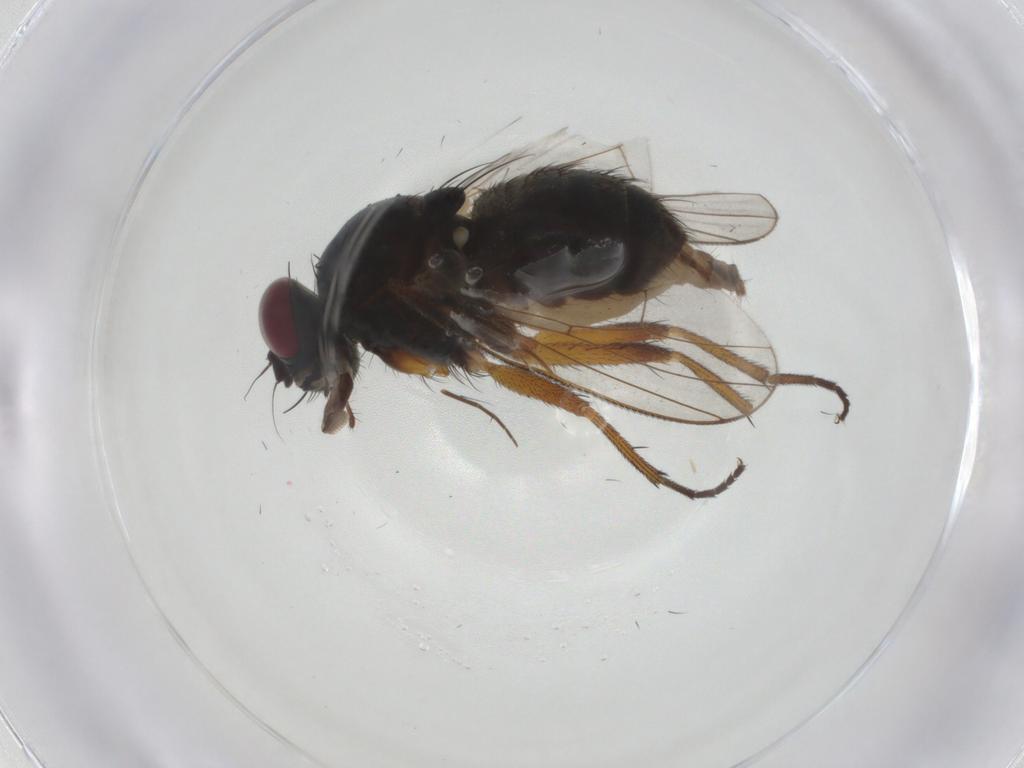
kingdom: Animalia
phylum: Arthropoda
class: Insecta
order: Diptera
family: Muscidae
